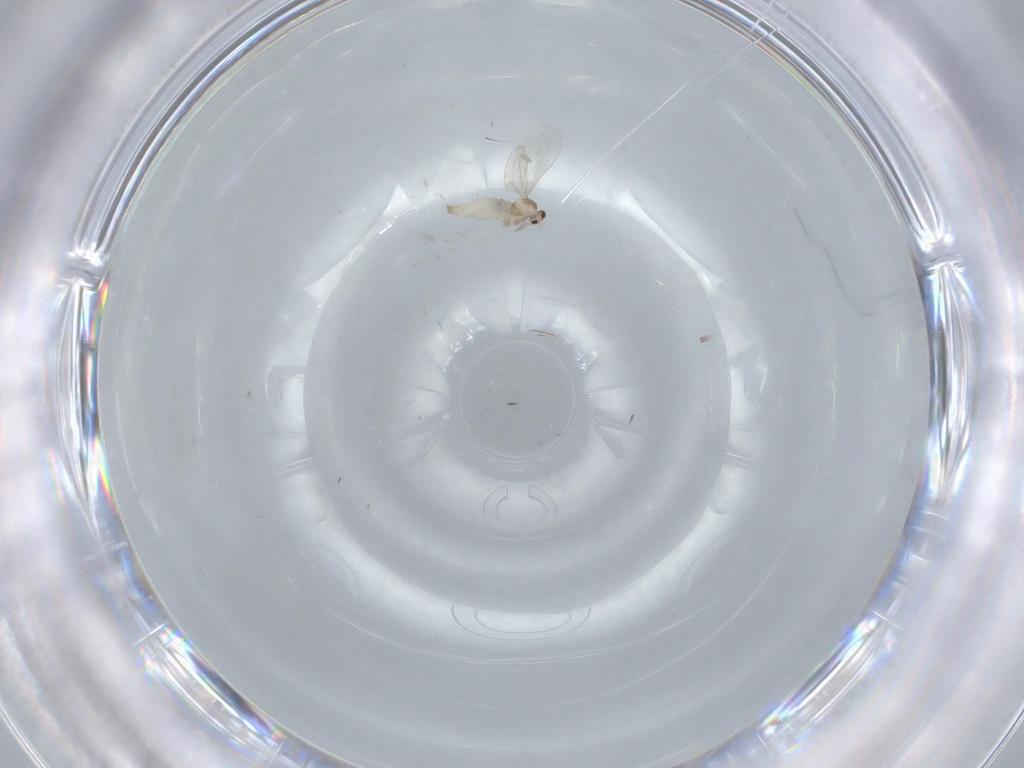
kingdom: Animalia
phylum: Arthropoda
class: Insecta
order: Diptera
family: Cecidomyiidae
